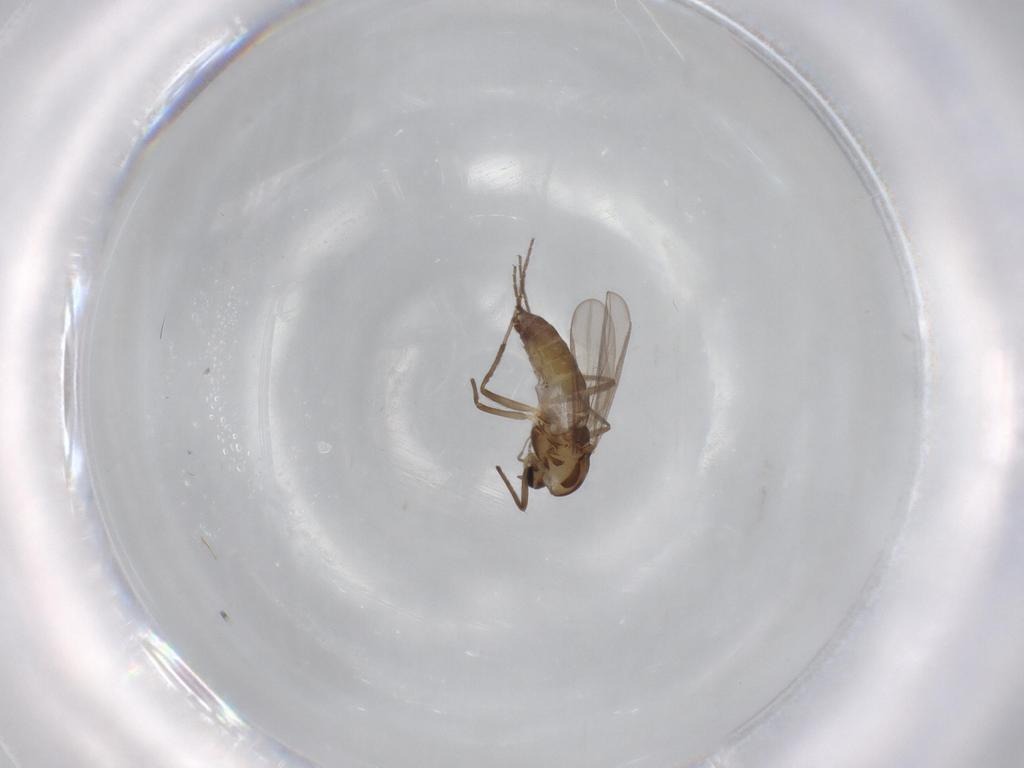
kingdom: Animalia
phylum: Arthropoda
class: Insecta
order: Diptera
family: Chironomidae
